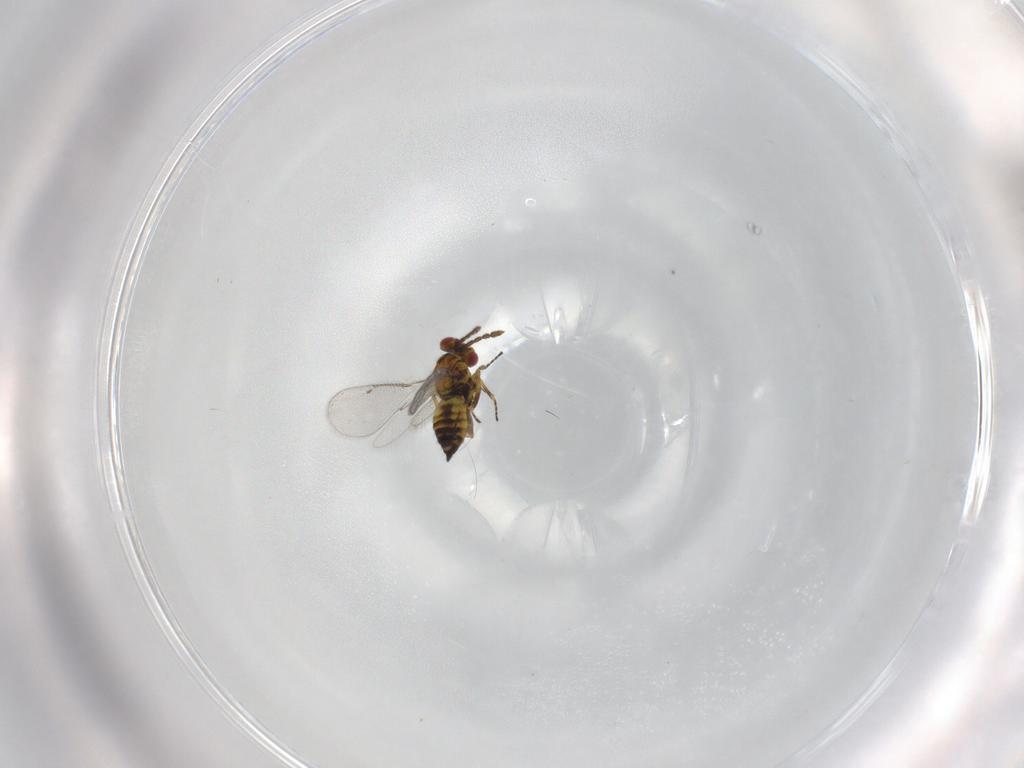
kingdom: Animalia
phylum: Arthropoda
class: Insecta
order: Hymenoptera
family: Eulophidae
